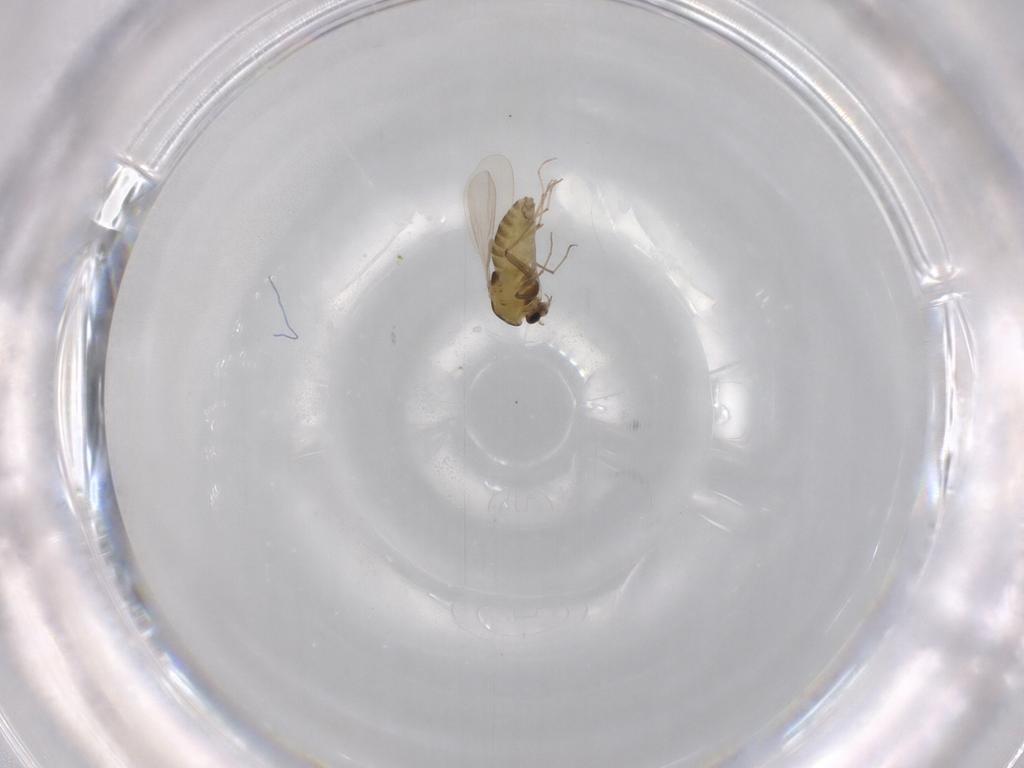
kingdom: Animalia
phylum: Arthropoda
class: Insecta
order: Diptera
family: Chironomidae
